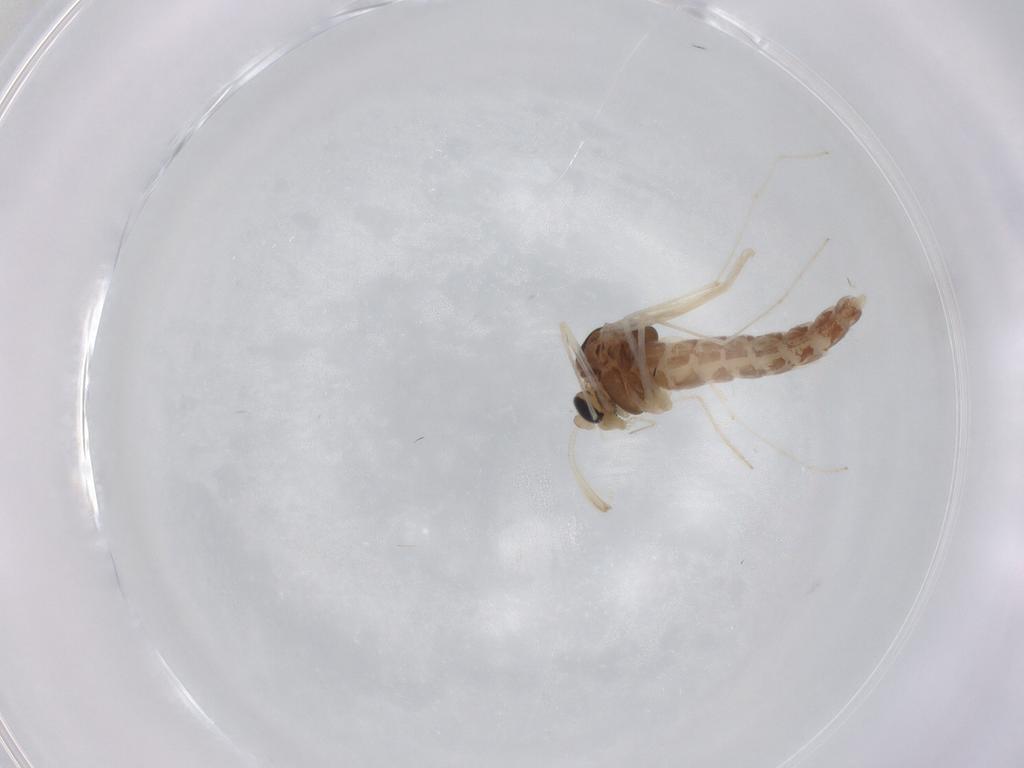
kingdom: Animalia
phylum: Arthropoda
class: Insecta
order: Diptera
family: Chironomidae
